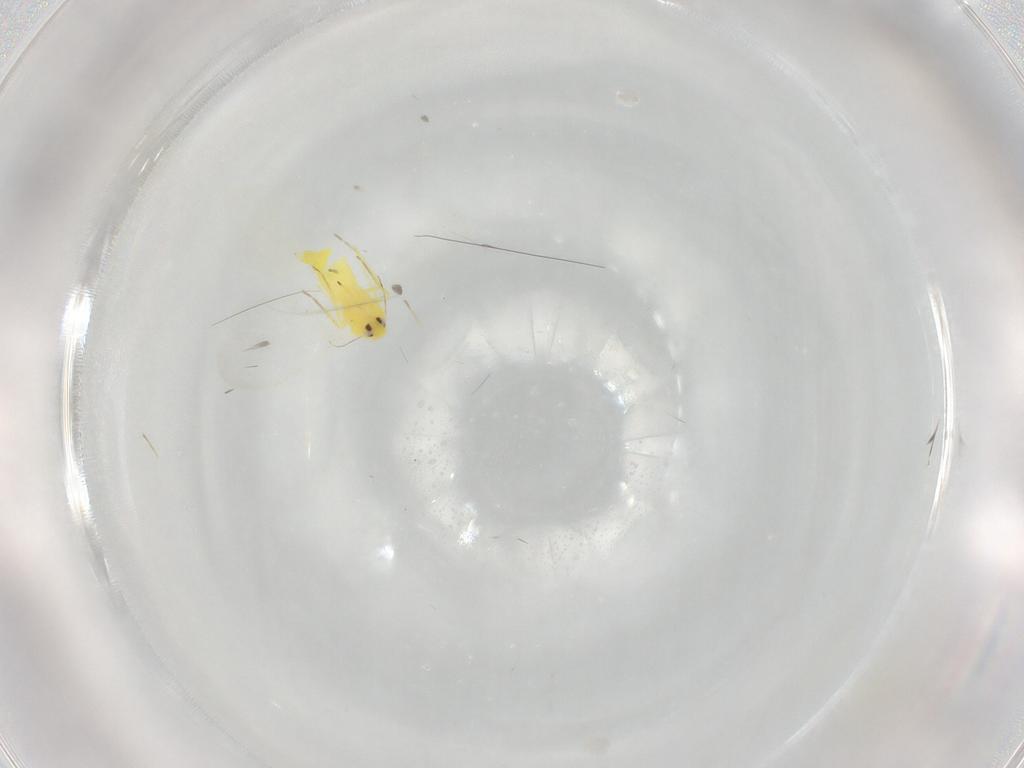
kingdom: Animalia
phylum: Arthropoda
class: Insecta
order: Hemiptera
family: Aleyrodidae
